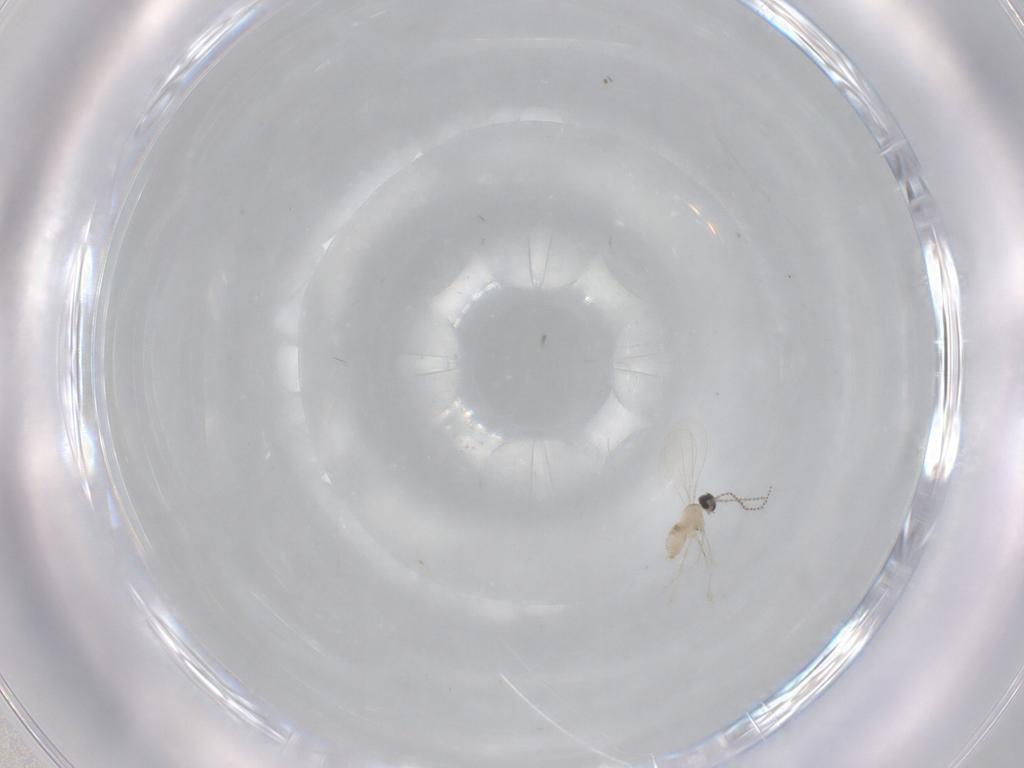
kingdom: Animalia
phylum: Arthropoda
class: Insecta
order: Diptera
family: Cecidomyiidae
